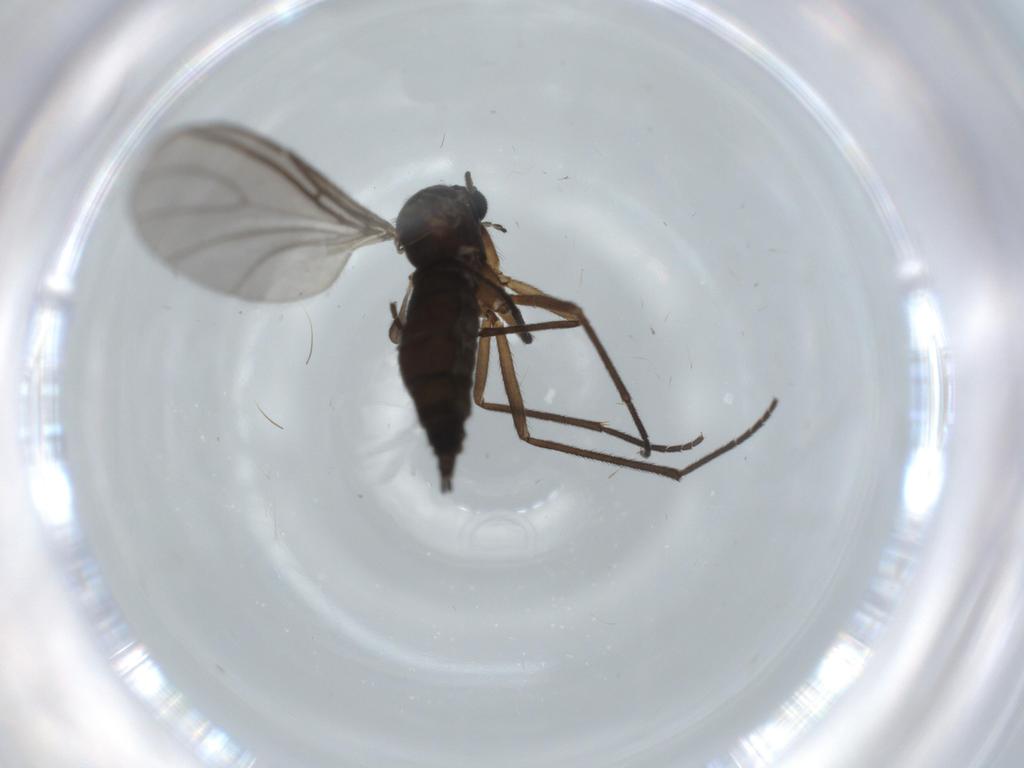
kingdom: Animalia
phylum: Arthropoda
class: Insecta
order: Diptera
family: Sciaridae
